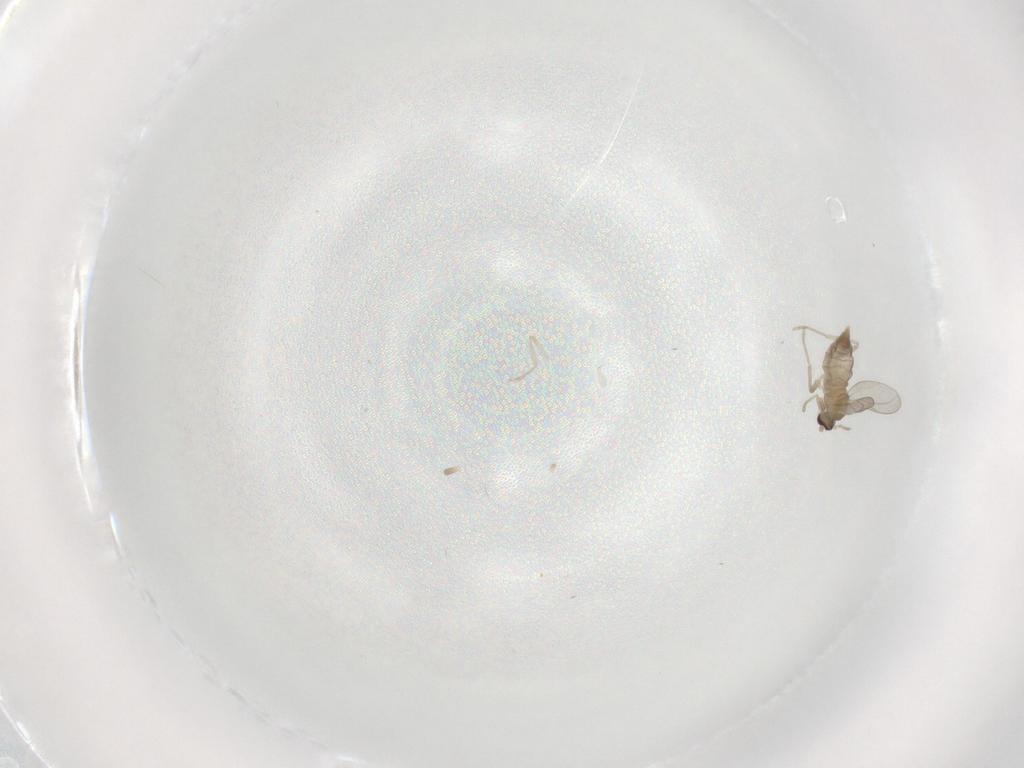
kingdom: Animalia
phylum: Arthropoda
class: Insecta
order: Diptera
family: Cecidomyiidae
